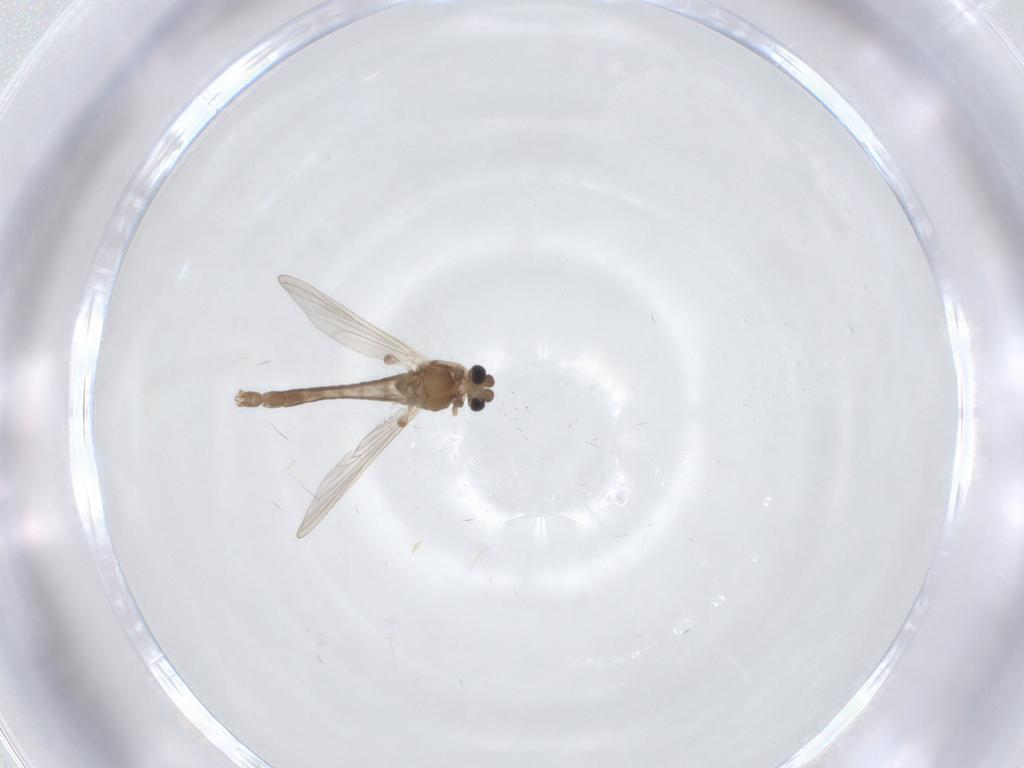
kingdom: Animalia
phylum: Arthropoda
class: Insecta
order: Diptera
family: Chironomidae
